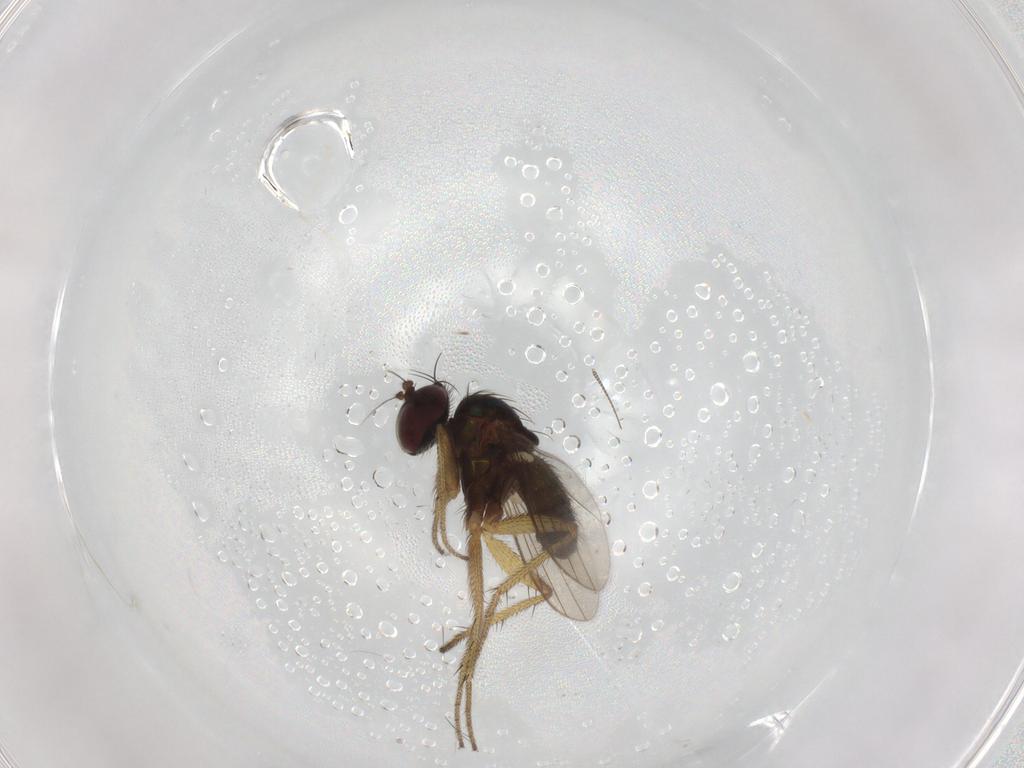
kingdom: Animalia
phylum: Arthropoda
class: Insecta
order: Diptera
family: Chironomidae
